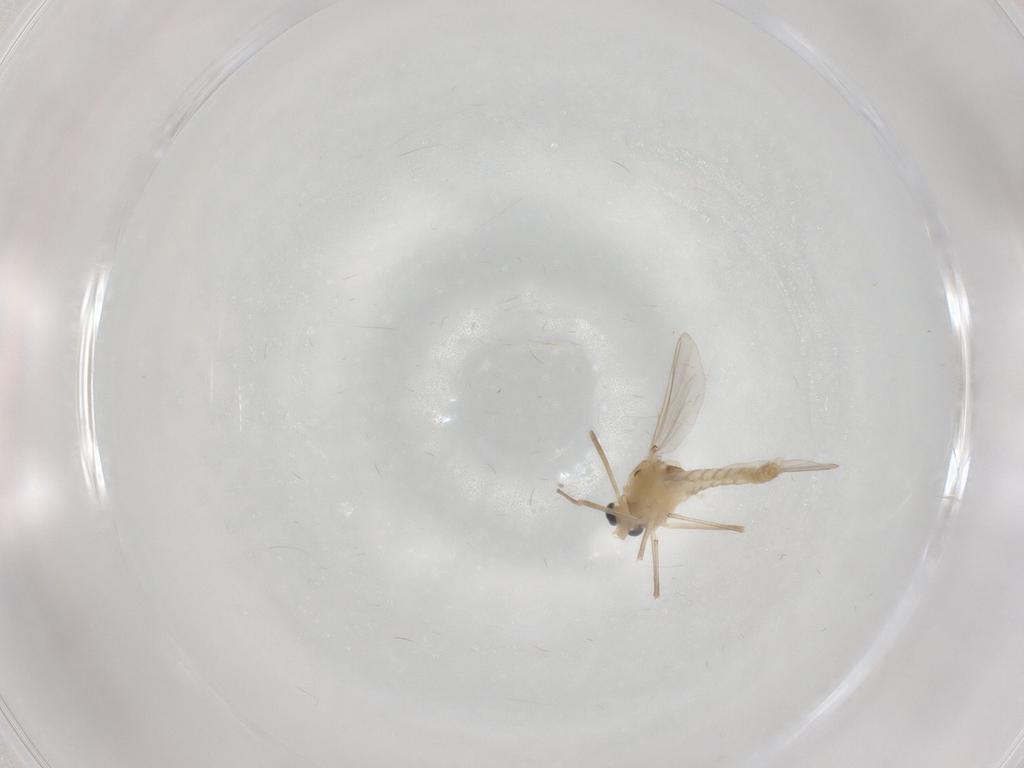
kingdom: Animalia
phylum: Arthropoda
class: Insecta
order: Diptera
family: Chironomidae
